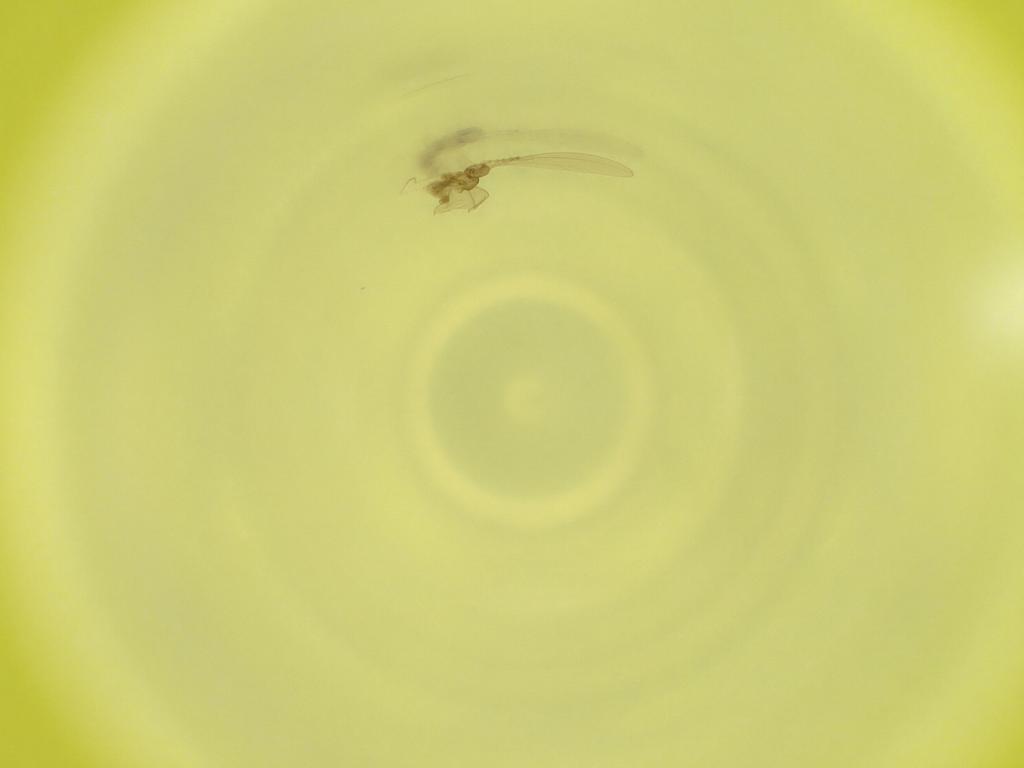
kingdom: Animalia
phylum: Arthropoda
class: Insecta
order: Diptera
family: Cecidomyiidae
